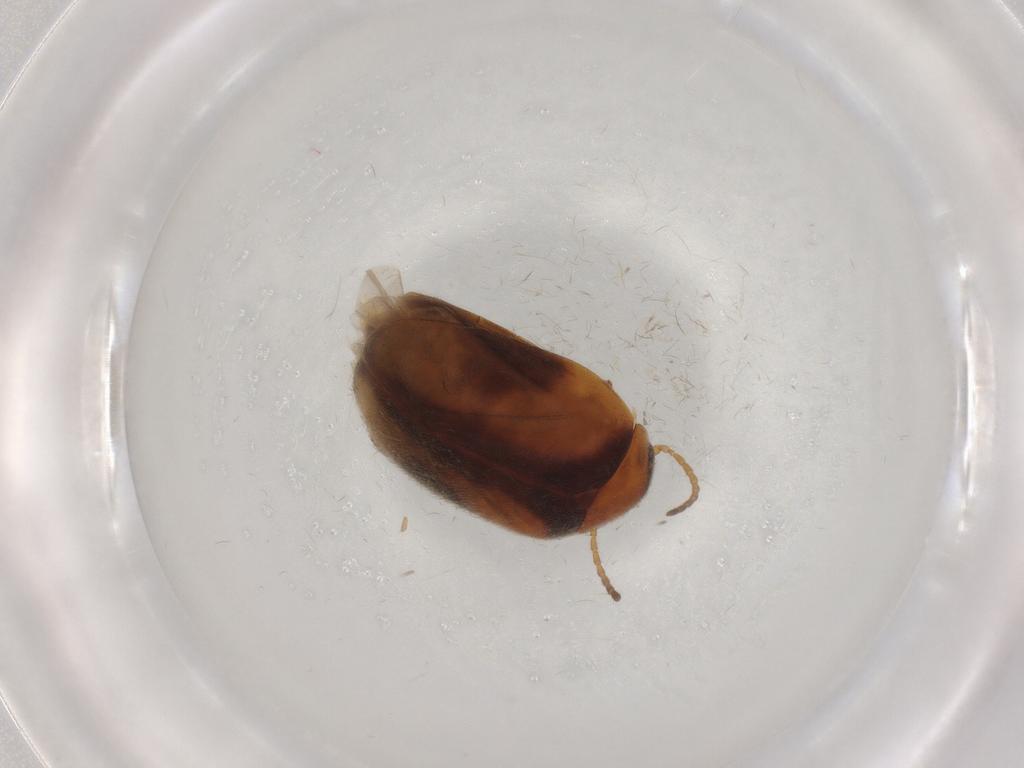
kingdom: Animalia
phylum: Arthropoda
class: Insecta
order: Coleoptera
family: Scirtidae
